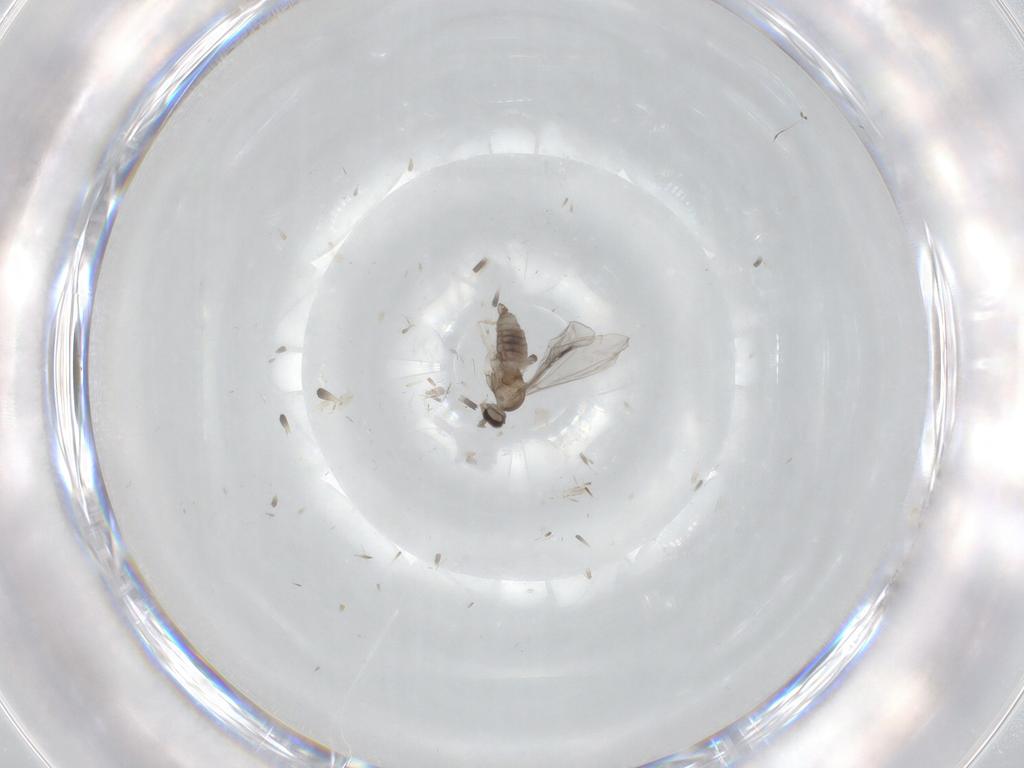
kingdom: Animalia
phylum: Arthropoda
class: Insecta
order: Diptera
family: Cecidomyiidae
